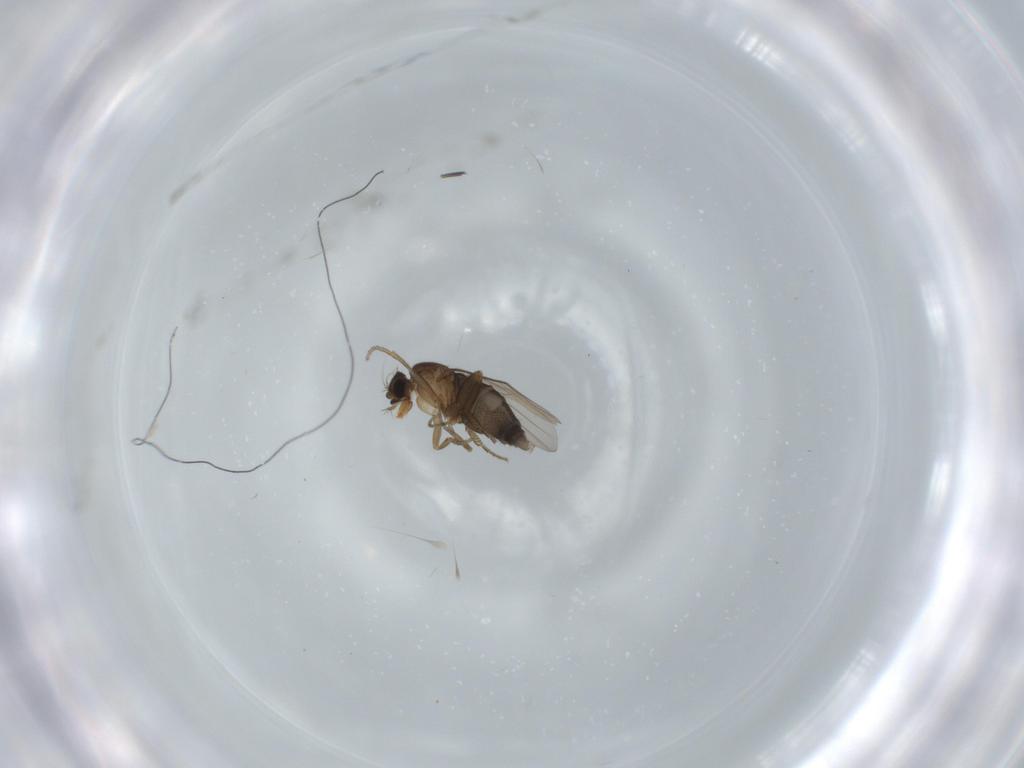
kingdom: Animalia
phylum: Arthropoda
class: Insecta
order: Diptera
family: Phoridae
